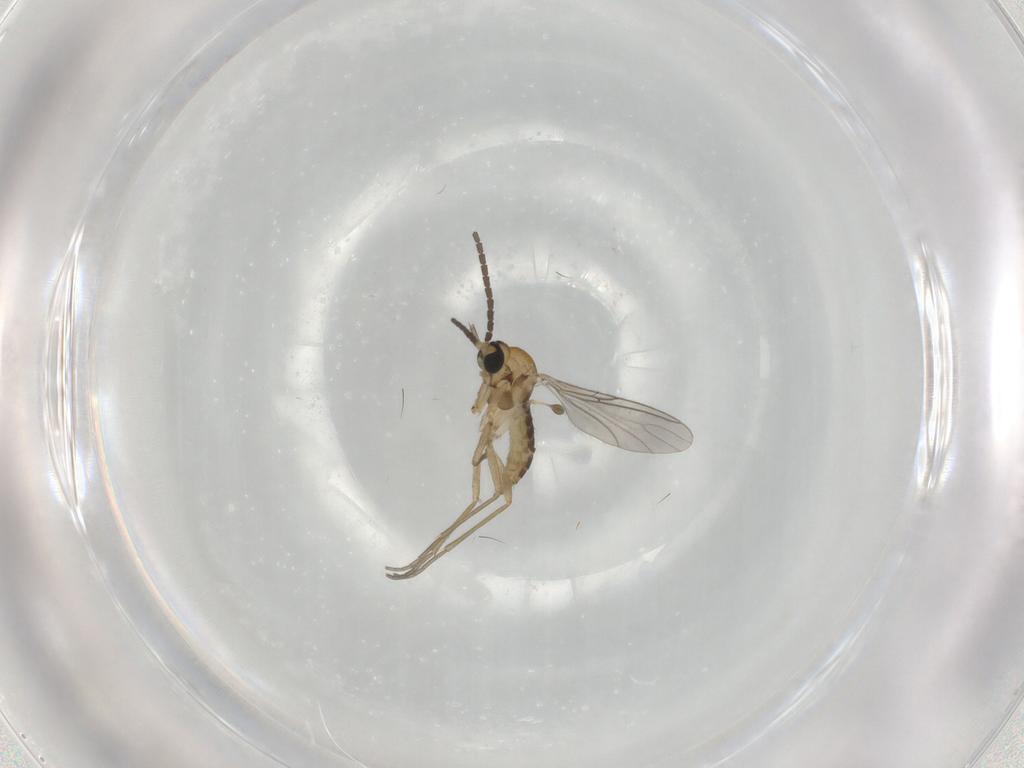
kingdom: Animalia
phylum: Arthropoda
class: Insecta
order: Diptera
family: Sciaridae
